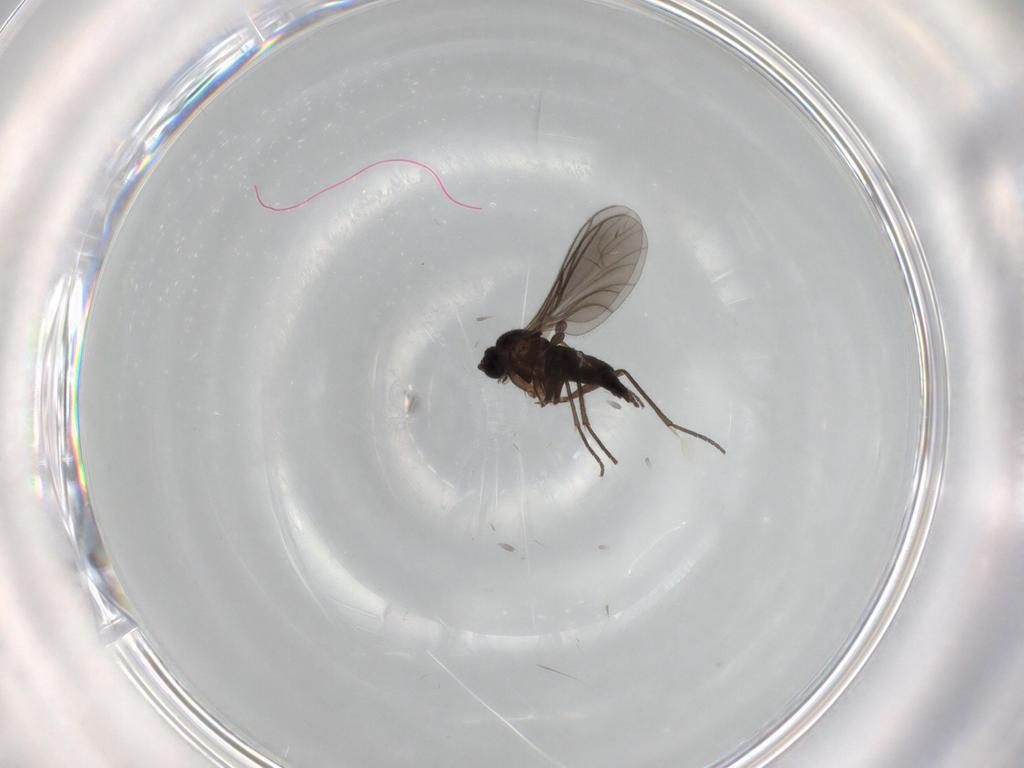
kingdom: Animalia
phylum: Arthropoda
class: Insecta
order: Diptera
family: Sciaridae
